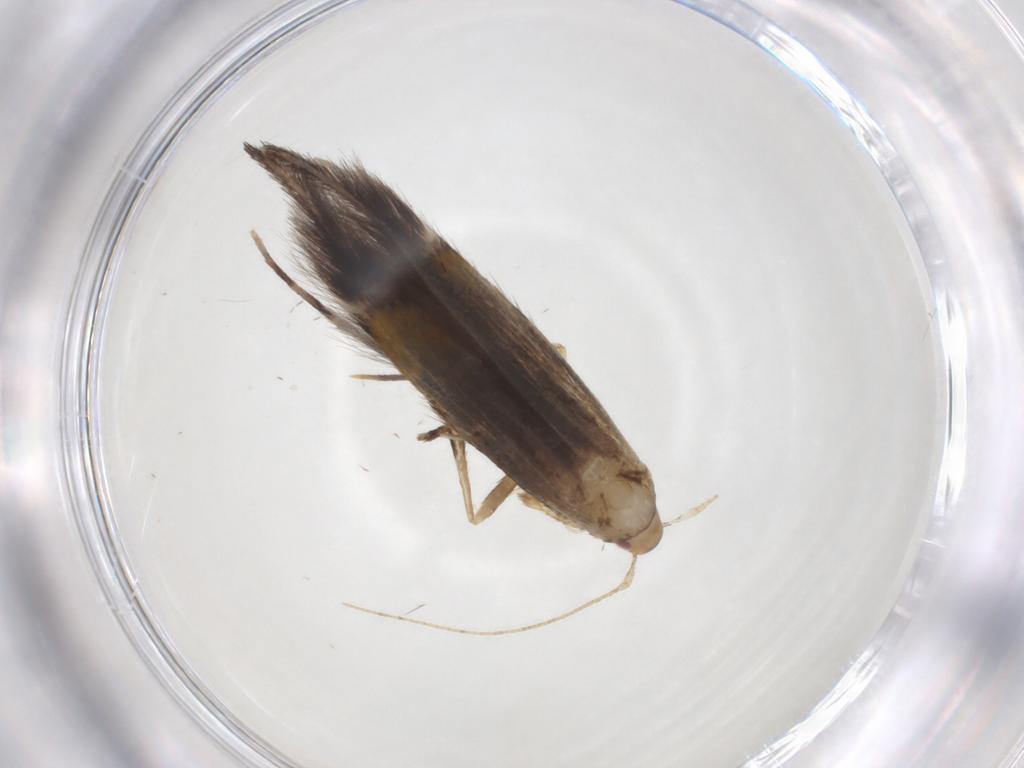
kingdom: Animalia
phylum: Arthropoda
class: Insecta
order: Lepidoptera
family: Cosmopterigidae
